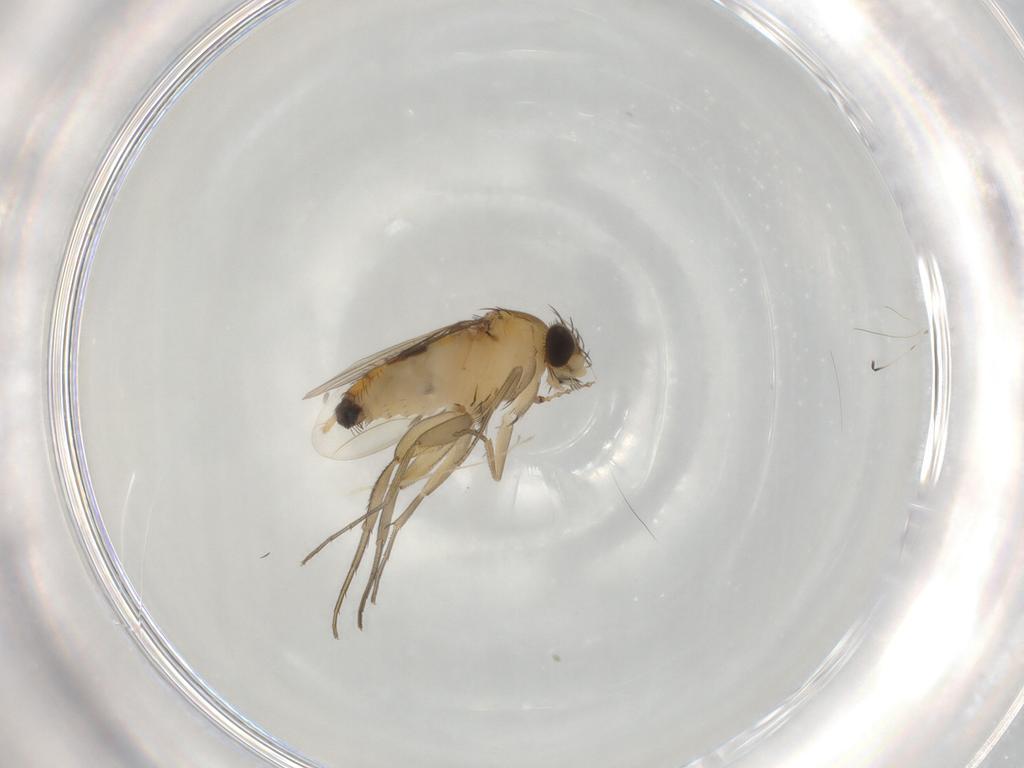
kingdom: Animalia
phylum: Arthropoda
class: Insecta
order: Diptera
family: Phoridae
